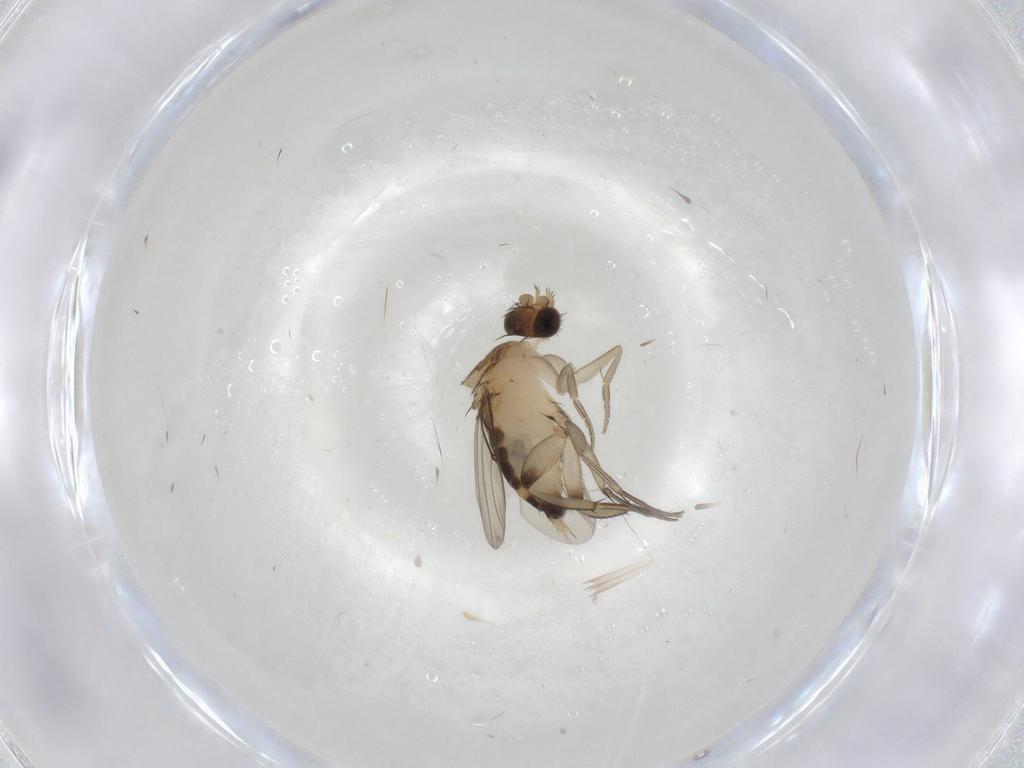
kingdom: Animalia
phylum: Arthropoda
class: Insecta
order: Diptera
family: Phoridae
